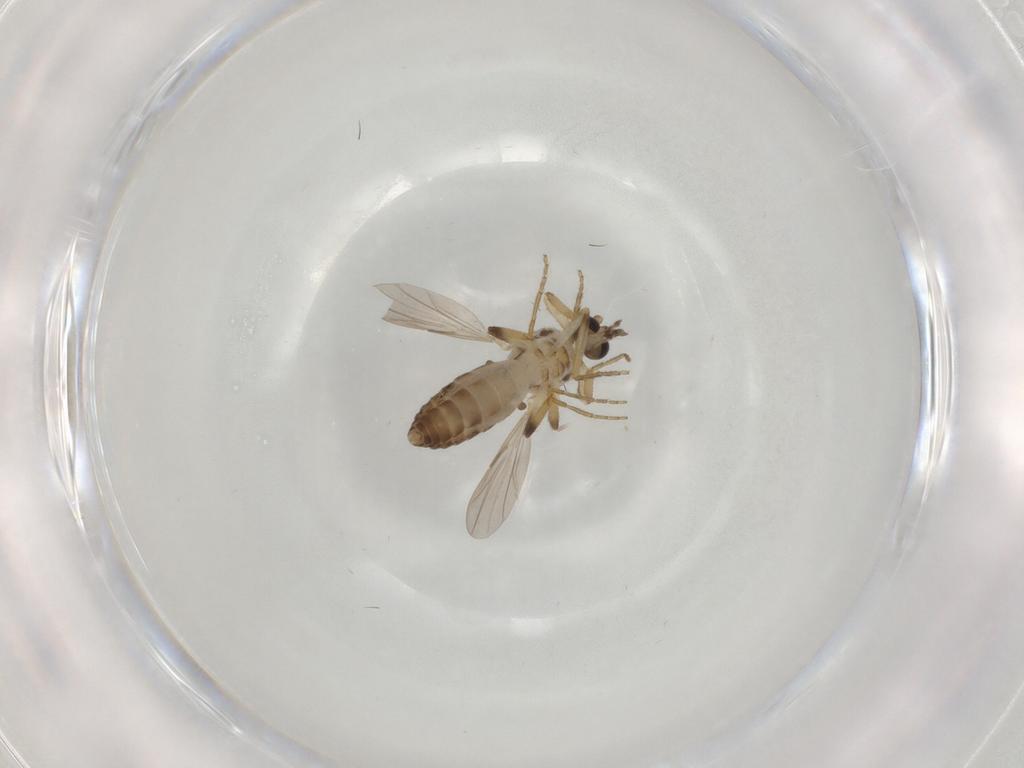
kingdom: Animalia
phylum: Arthropoda
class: Insecta
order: Diptera
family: Ceratopogonidae
